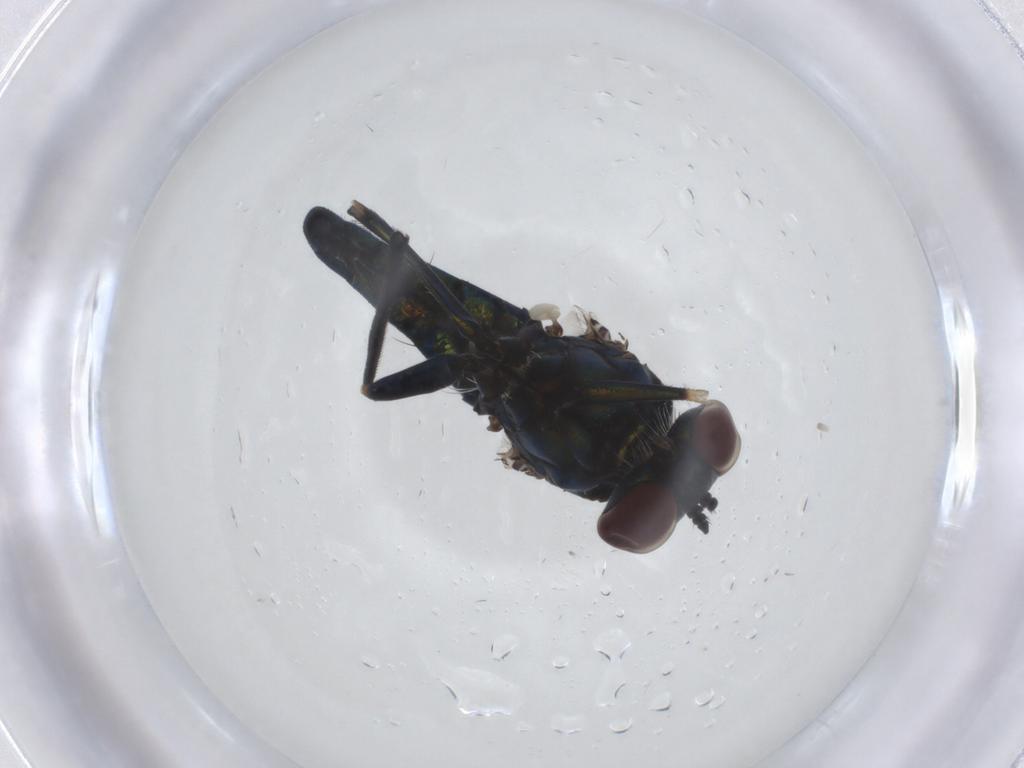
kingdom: Animalia
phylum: Arthropoda
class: Insecta
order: Diptera
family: Dolichopodidae
